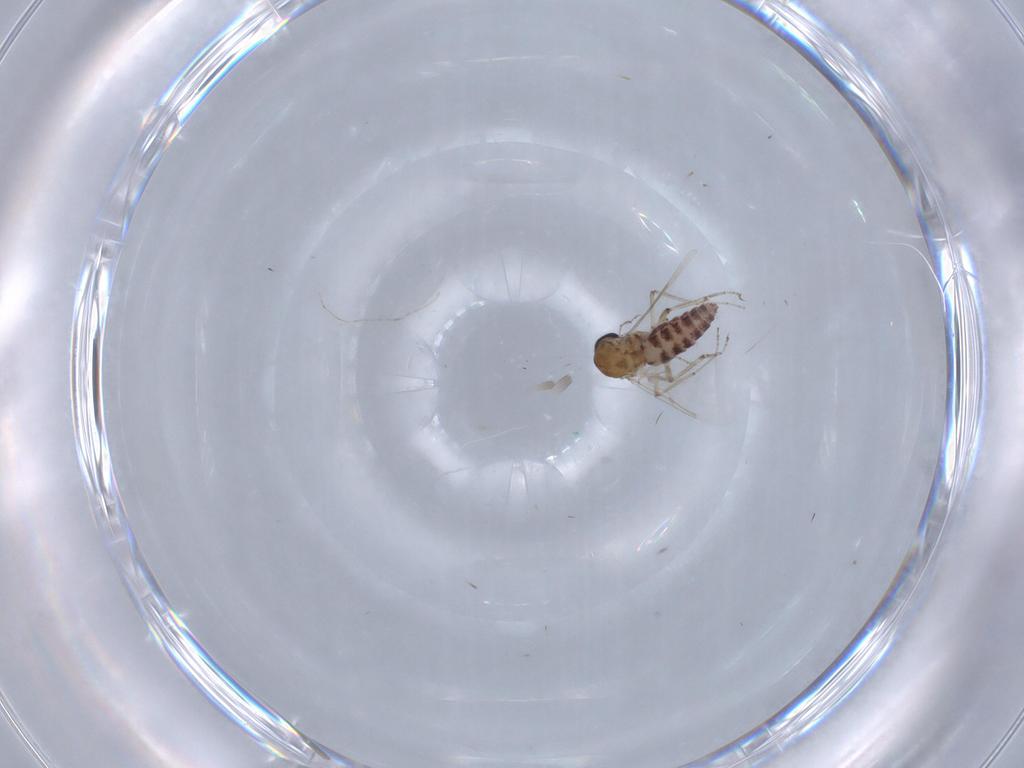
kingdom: Animalia
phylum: Arthropoda
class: Insecta
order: Diptera
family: Ceratopogonidae
